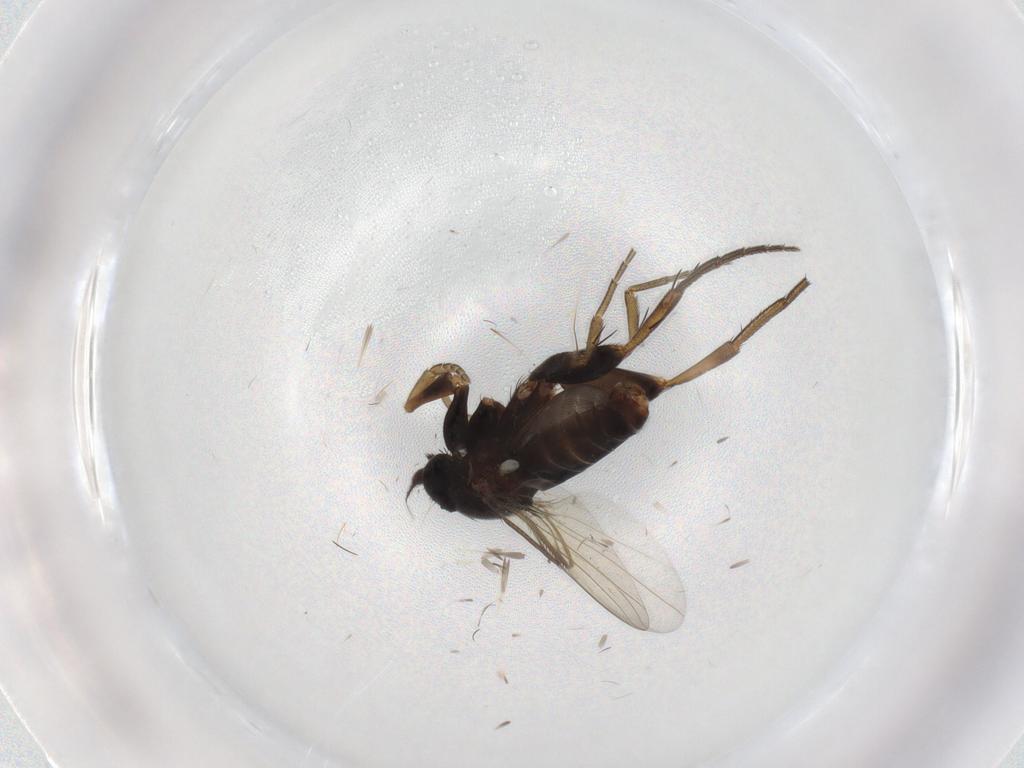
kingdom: Animalia
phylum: Arthropoda
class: Insecta
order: Diptera
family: Phoridae
